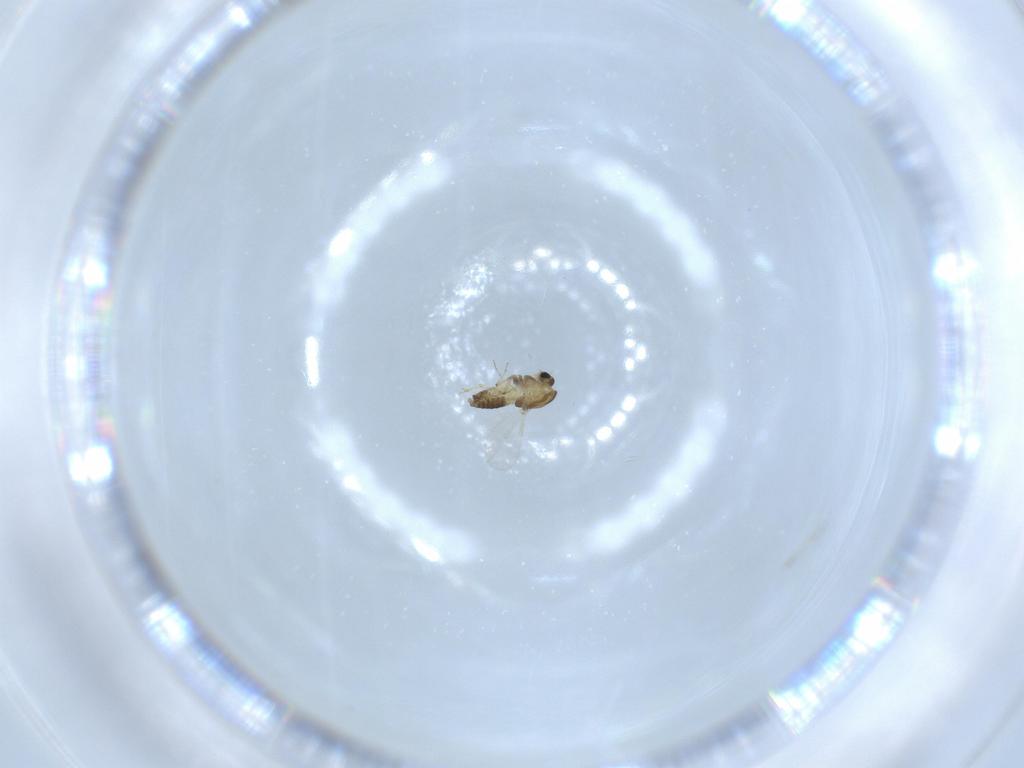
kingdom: Animalia
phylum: Arthropoda
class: Insecta
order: Diptera
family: Chironomidae
